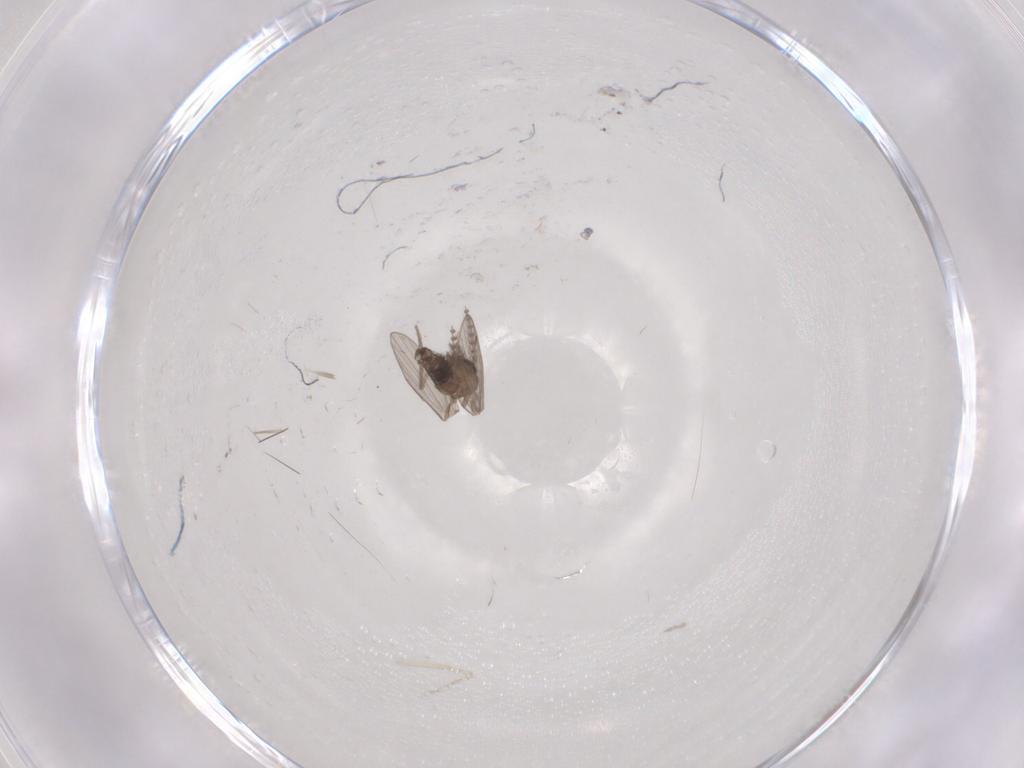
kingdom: Animalia
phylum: Arthropoda
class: Insecta
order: Diptera
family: Psychodidae
